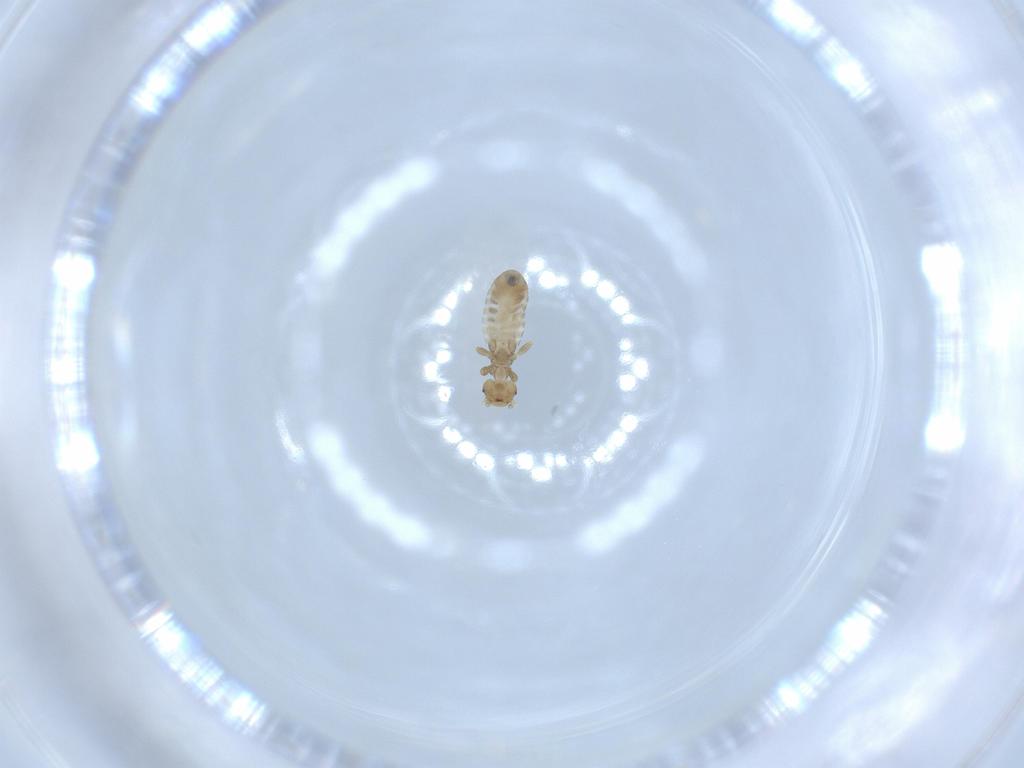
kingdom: Animalia
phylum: Arthropoda
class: Insecta
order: Psocodea
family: Liposcelididae
